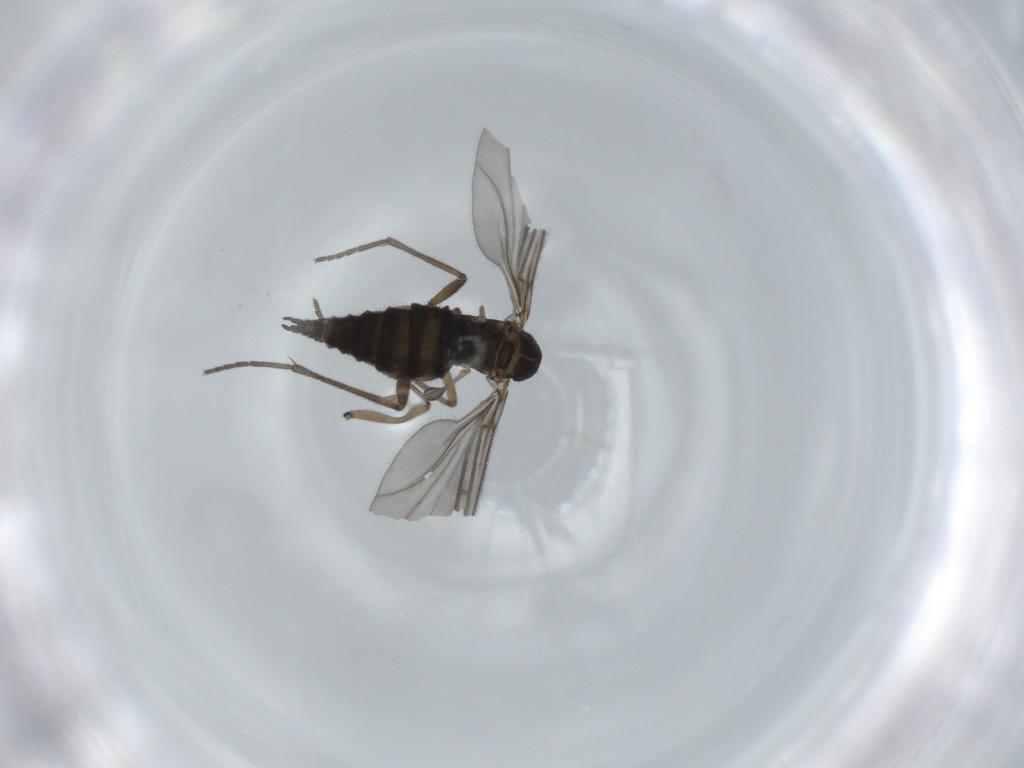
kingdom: Animalia
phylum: Arthropoda
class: Insecta
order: Diptera
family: Sciaridae
